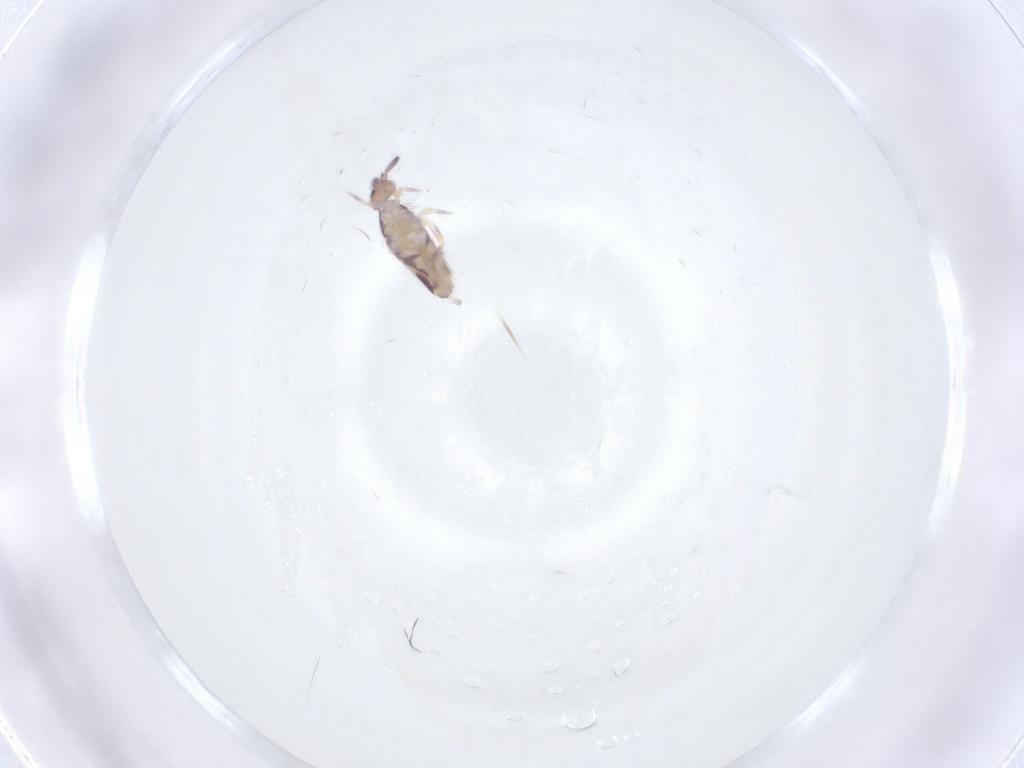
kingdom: Animalia
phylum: Arthropoda
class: Collembola
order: Entomobryomorpha
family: Entomobryidae
